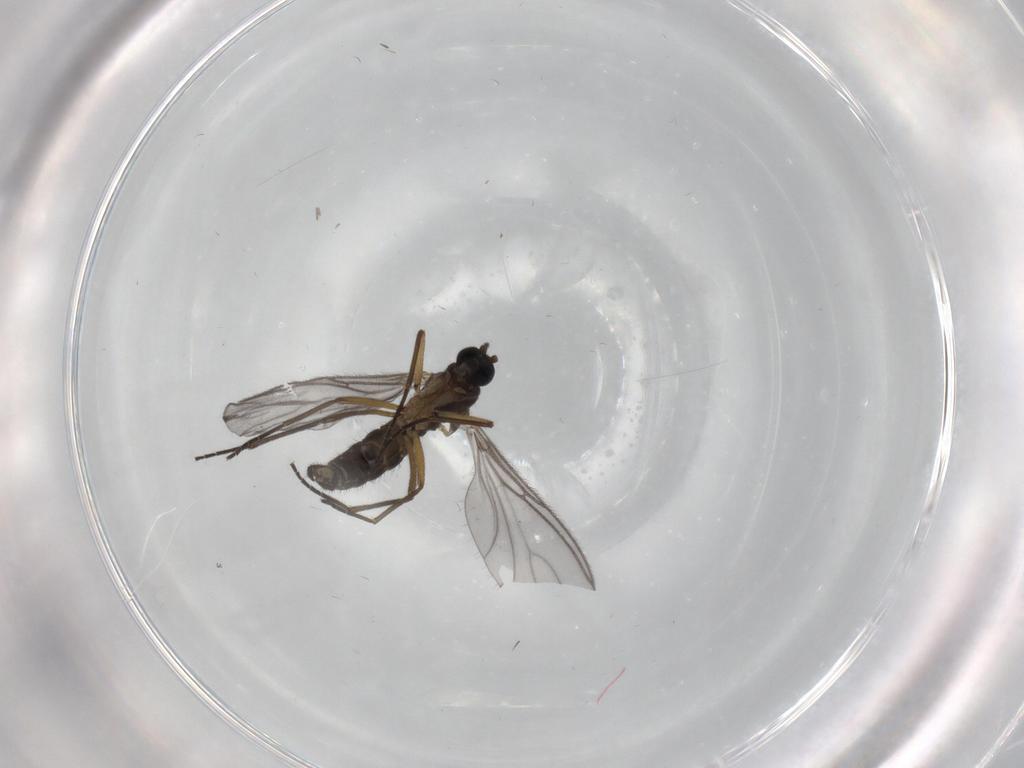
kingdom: Animalia
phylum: Arthropoda
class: Insecta
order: Diptera
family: Sciaridae
